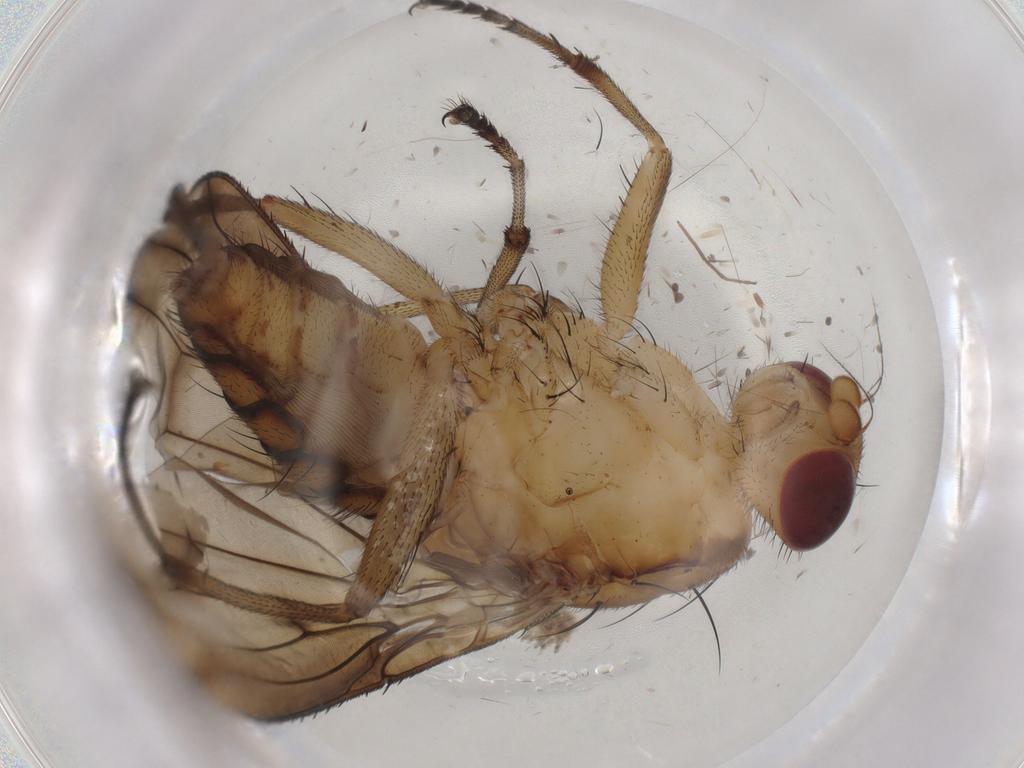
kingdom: Animalia
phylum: Arthropoda
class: Insecta
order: Diptera
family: Heleomyzidae
